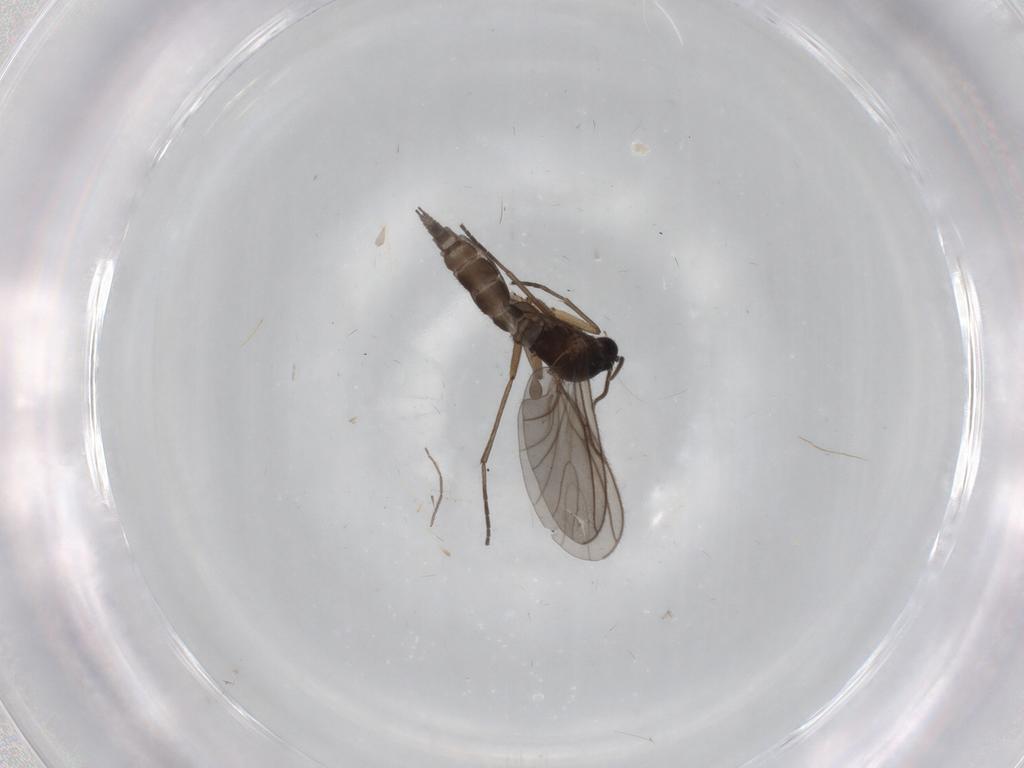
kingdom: Animalia
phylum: Arthropoda
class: Insecta
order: Diptera
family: Sciaridae
